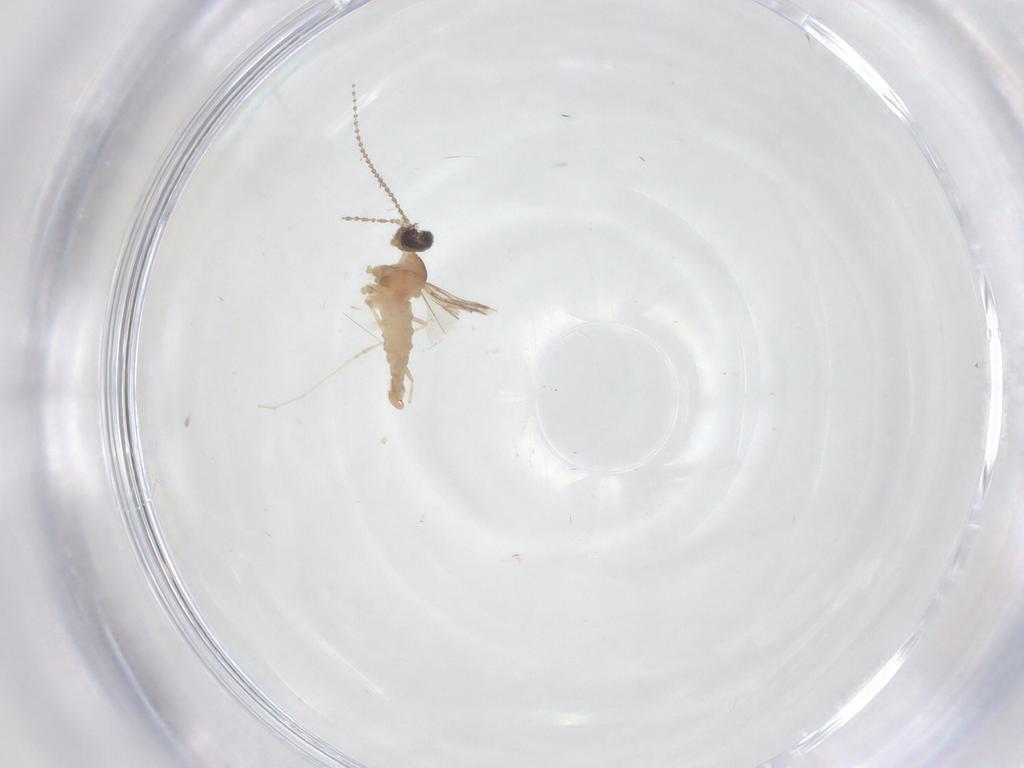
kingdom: Animalia
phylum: Arthropoda
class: Insecta
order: Diptera
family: Cecidomyiidae
